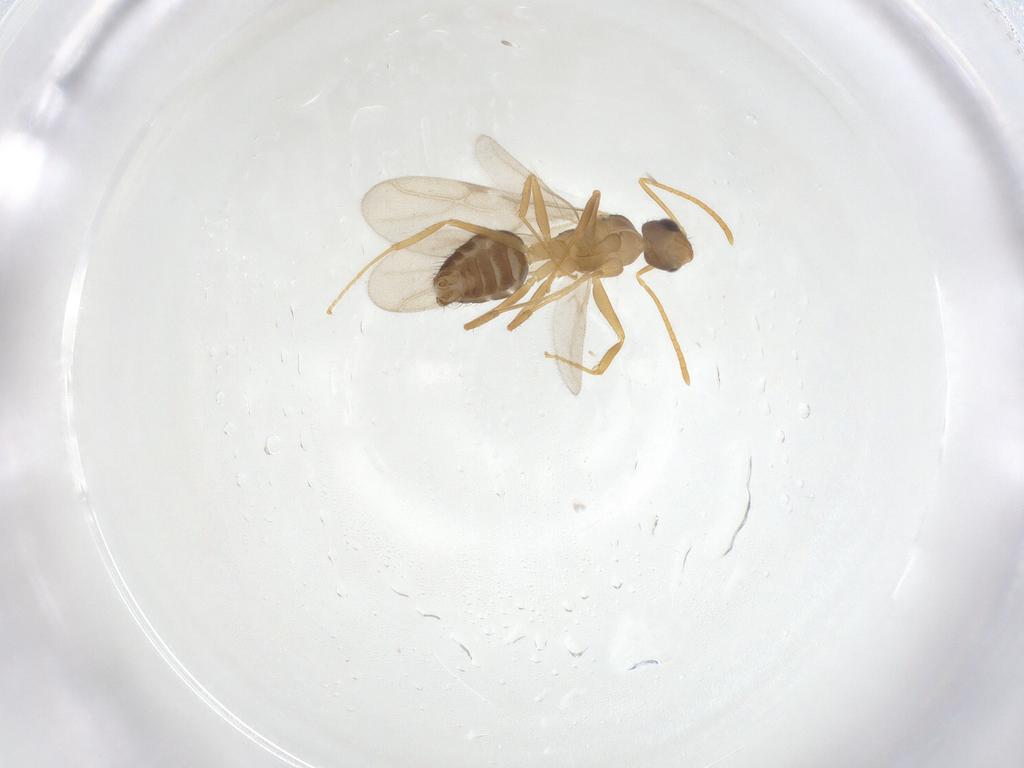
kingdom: Animalia
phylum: Arthropoda
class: Insecta
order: Hymenoptera
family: Formicidae
